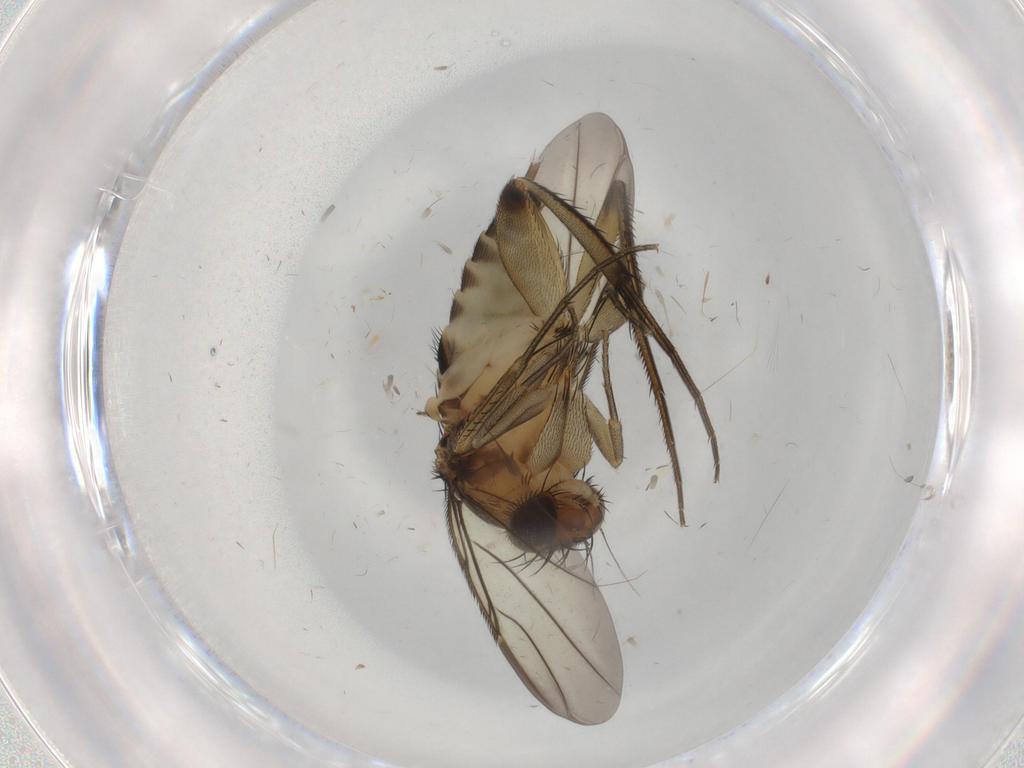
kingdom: Animalia
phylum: Arthropoda
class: Insecta
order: Diptera
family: Phoridae
